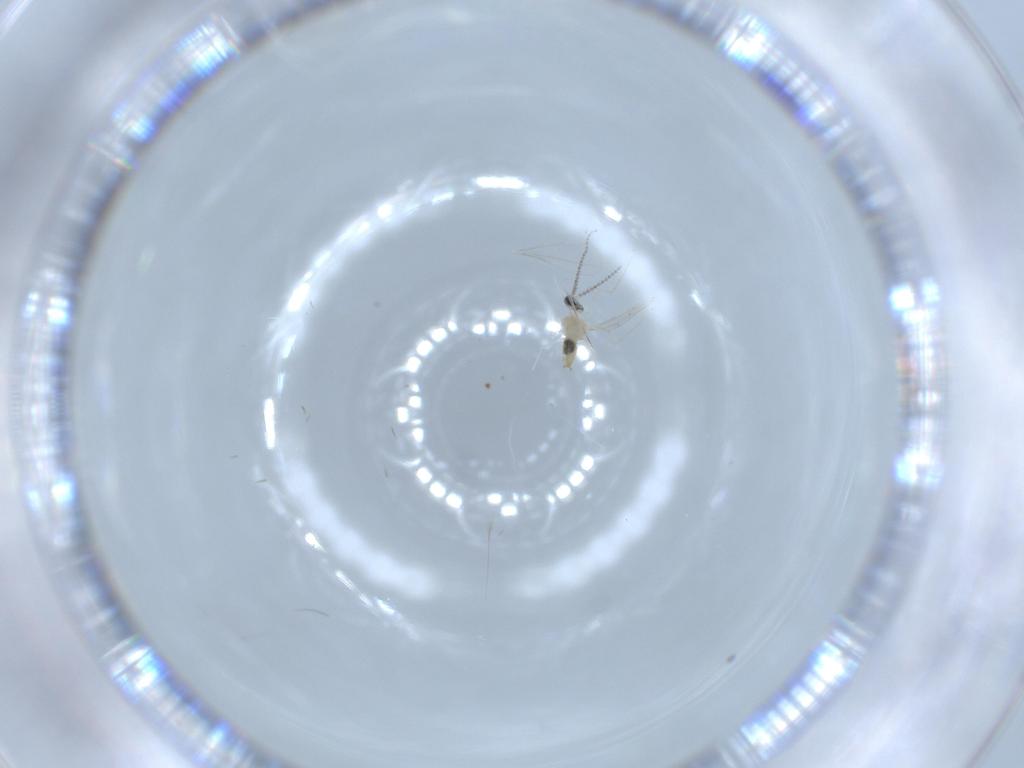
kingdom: Animalia
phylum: Arthropoda
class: Insecta
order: Diptera
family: Cecidomyiidae
